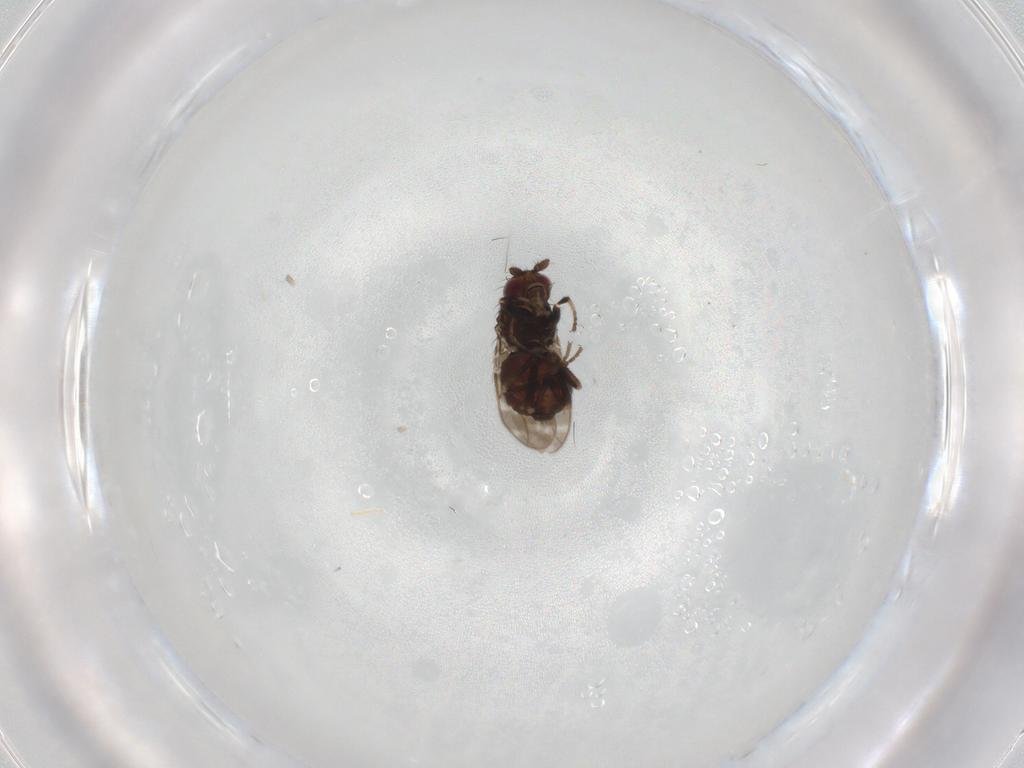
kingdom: Animalia
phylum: Arthropoda
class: Insecta
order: Diptera
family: Sphaeroceridae
